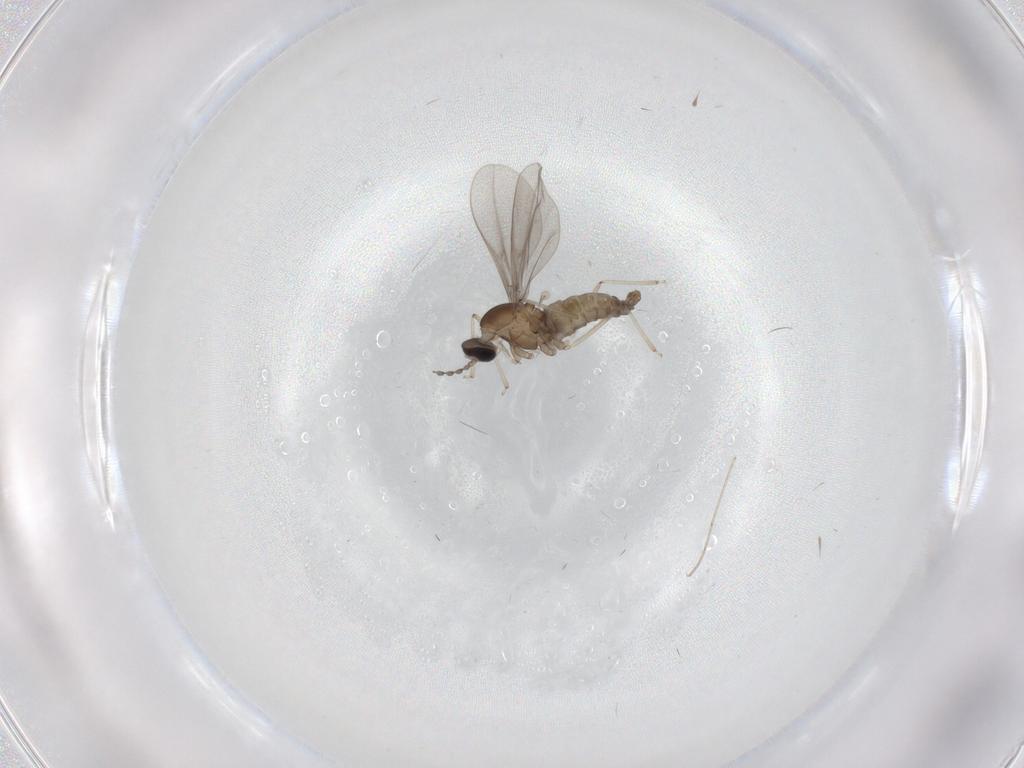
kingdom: Animalia
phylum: Arthropoda
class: Insecta
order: Diptera
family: Cecidomyiidae
